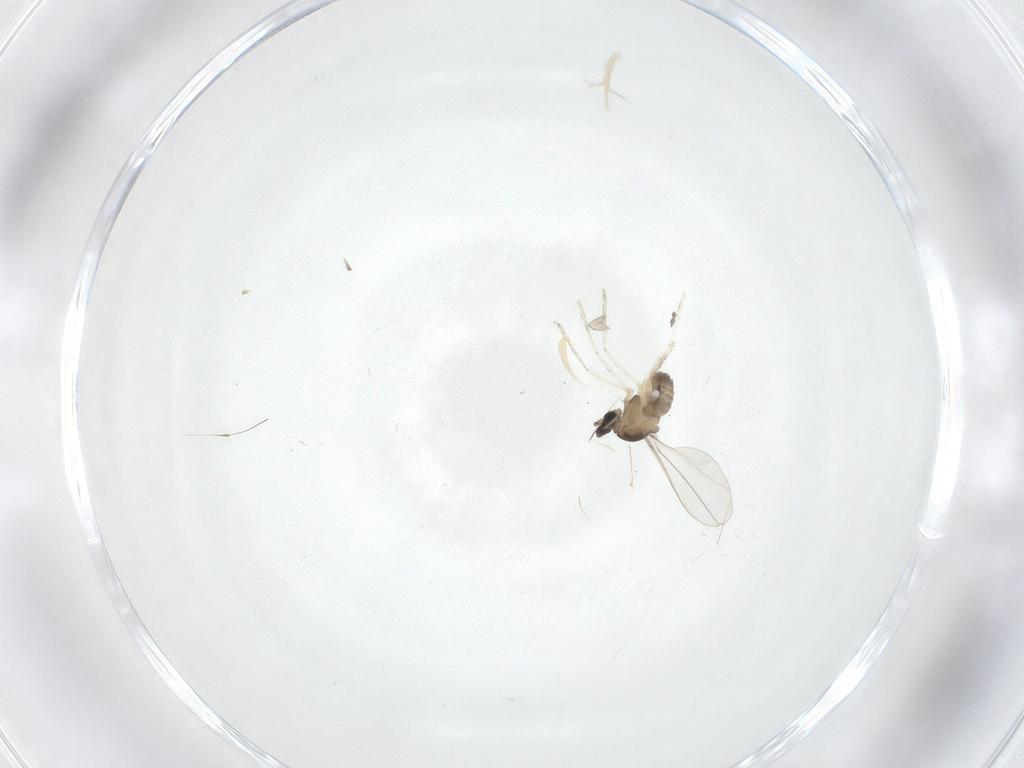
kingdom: Animalia
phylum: Arthropoda
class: Insecta
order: Diptera
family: Cecidomyiidae
